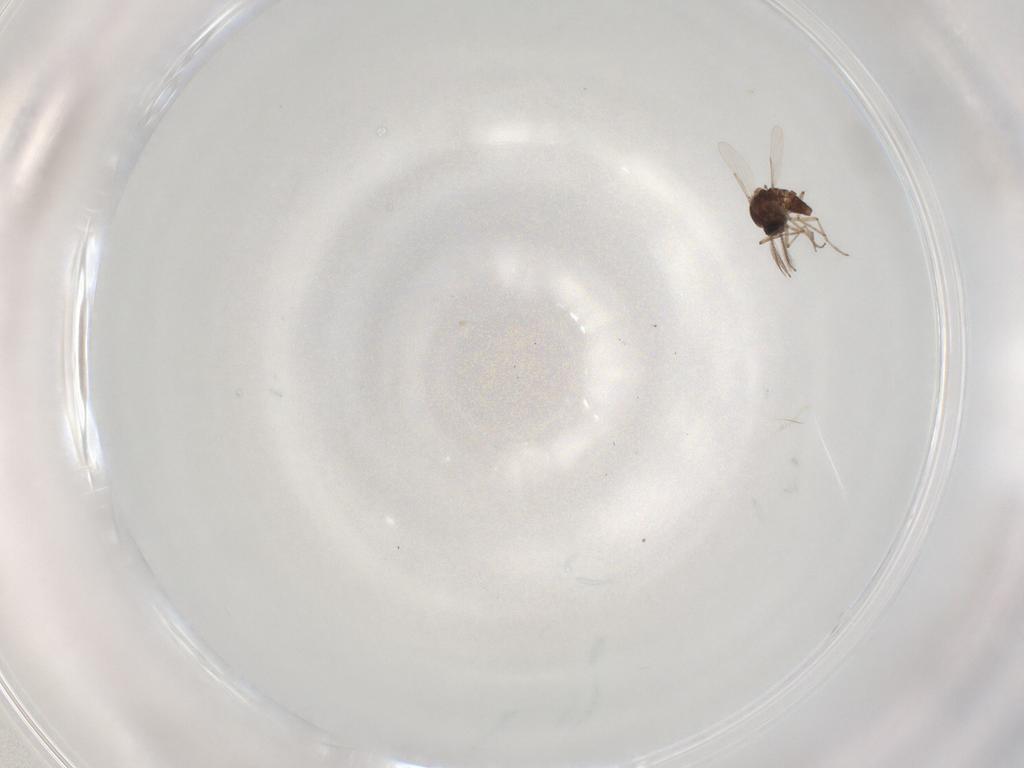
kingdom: Animalia
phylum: Arthropoda
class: Insecta
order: Diptera
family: Ceratopogonidae
